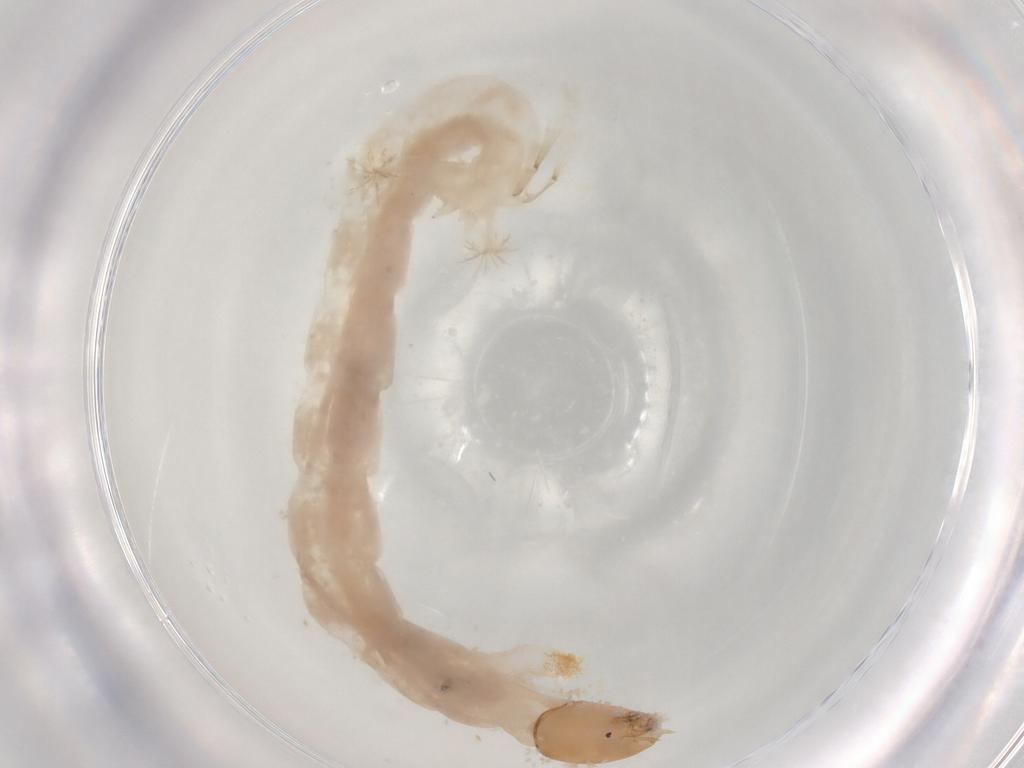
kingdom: Animalia
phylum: Arthropoda
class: Insecta
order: Diptera
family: Chironomidae
